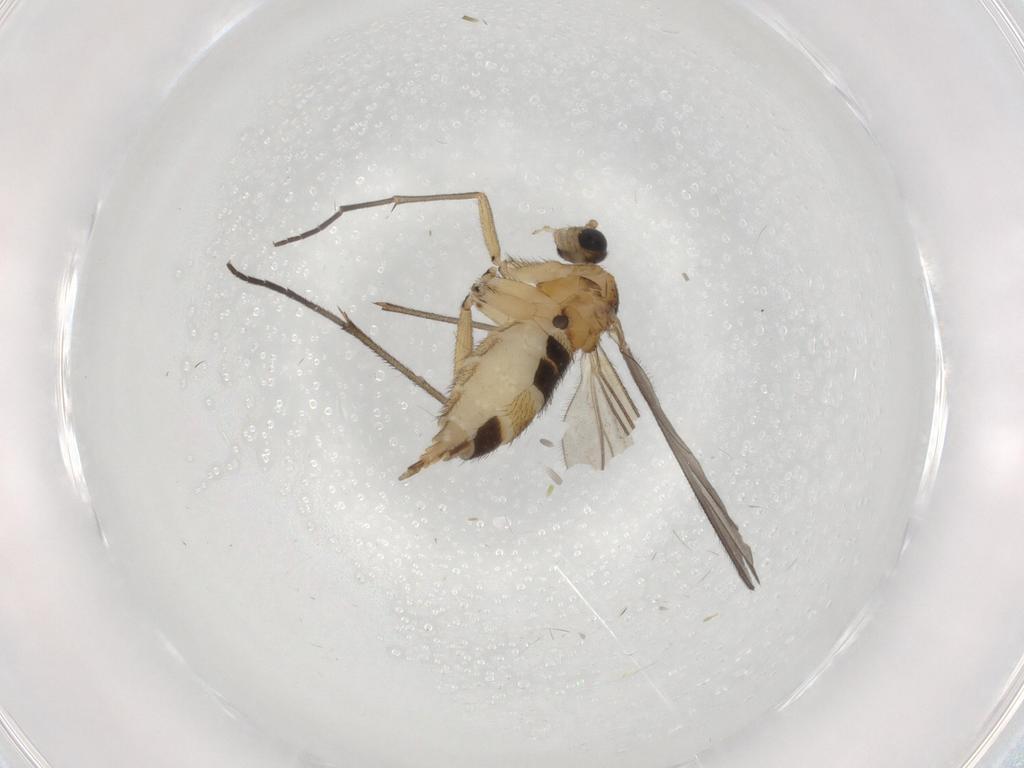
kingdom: Animalia
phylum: Arthropoda
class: Insecta
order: Diptera
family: Sciaridae
